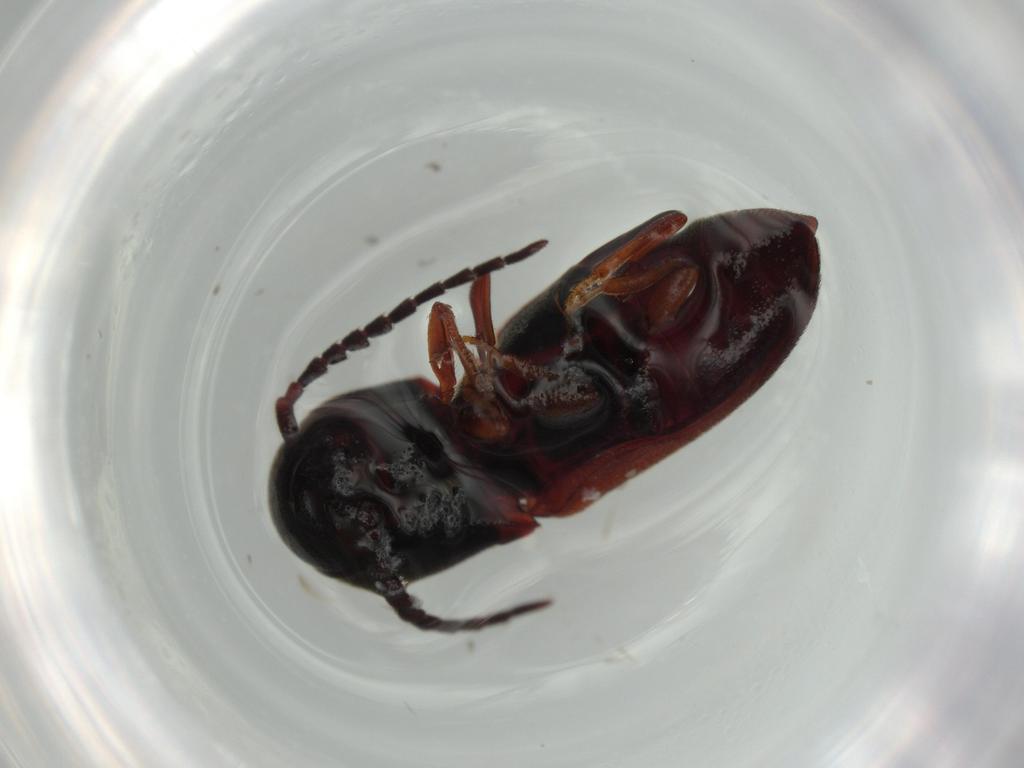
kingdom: Animalia
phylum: Arthropoda
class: Insecta
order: Coleoptera
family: Eucnemidae
